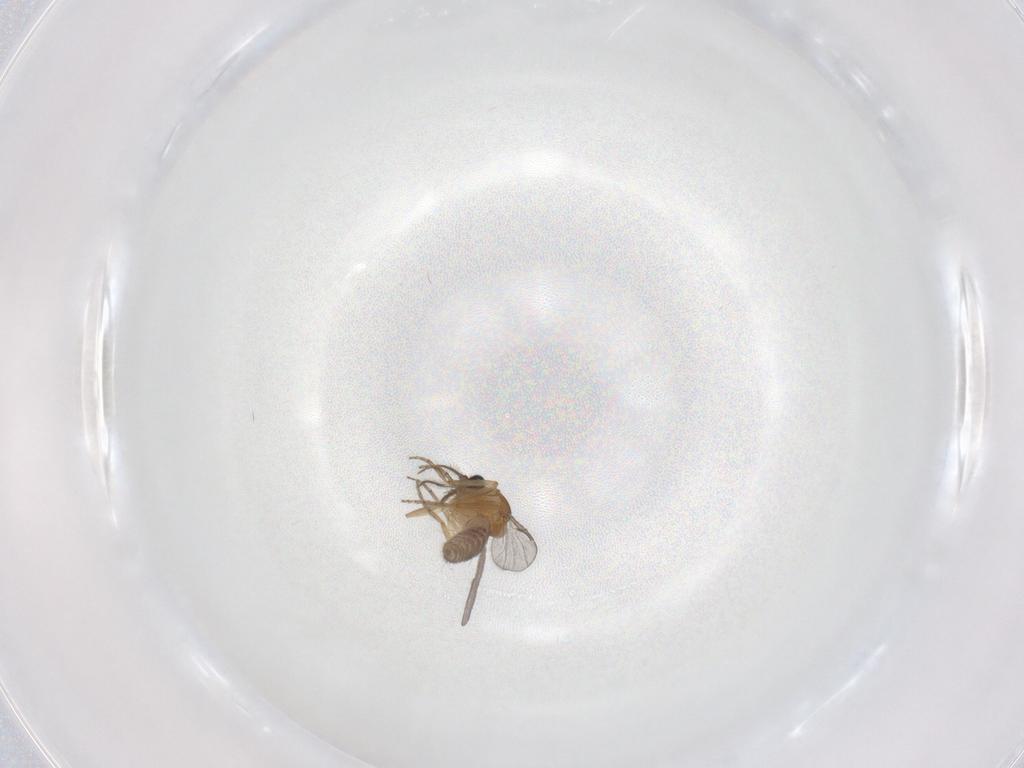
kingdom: Animalia
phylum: Arthropoda
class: Insecta
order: Diptera
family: Ceratopogonidae
